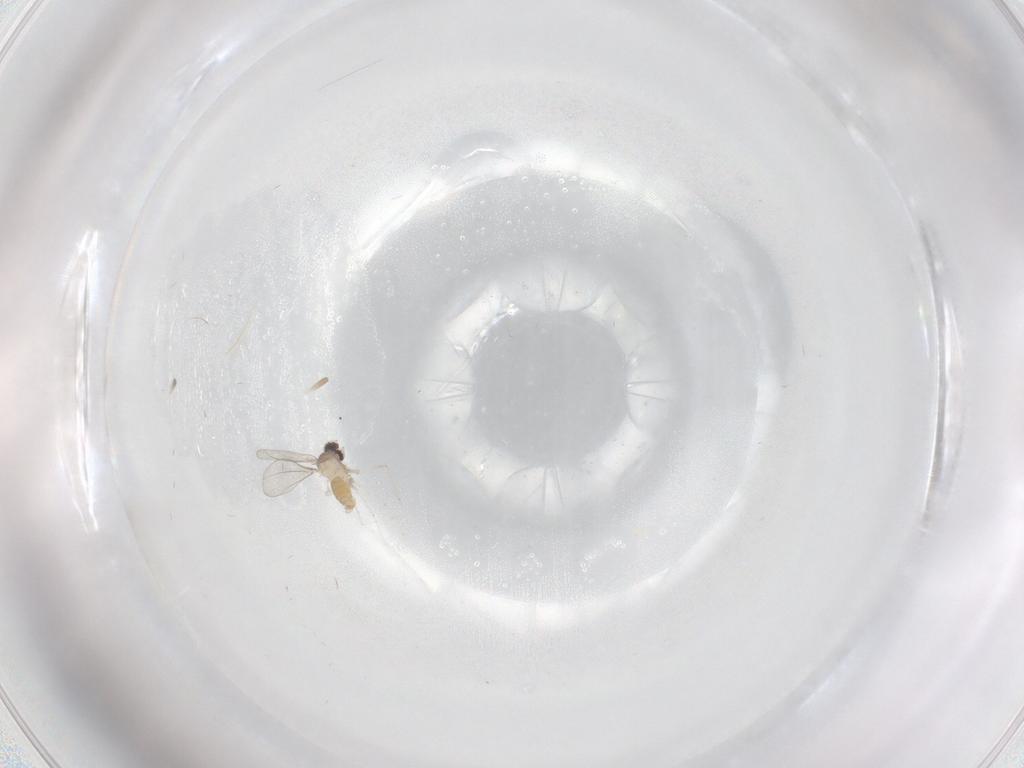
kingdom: Animalia
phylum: Arthropoda
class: Insecta
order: Diptera
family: Cecidomyiidae
